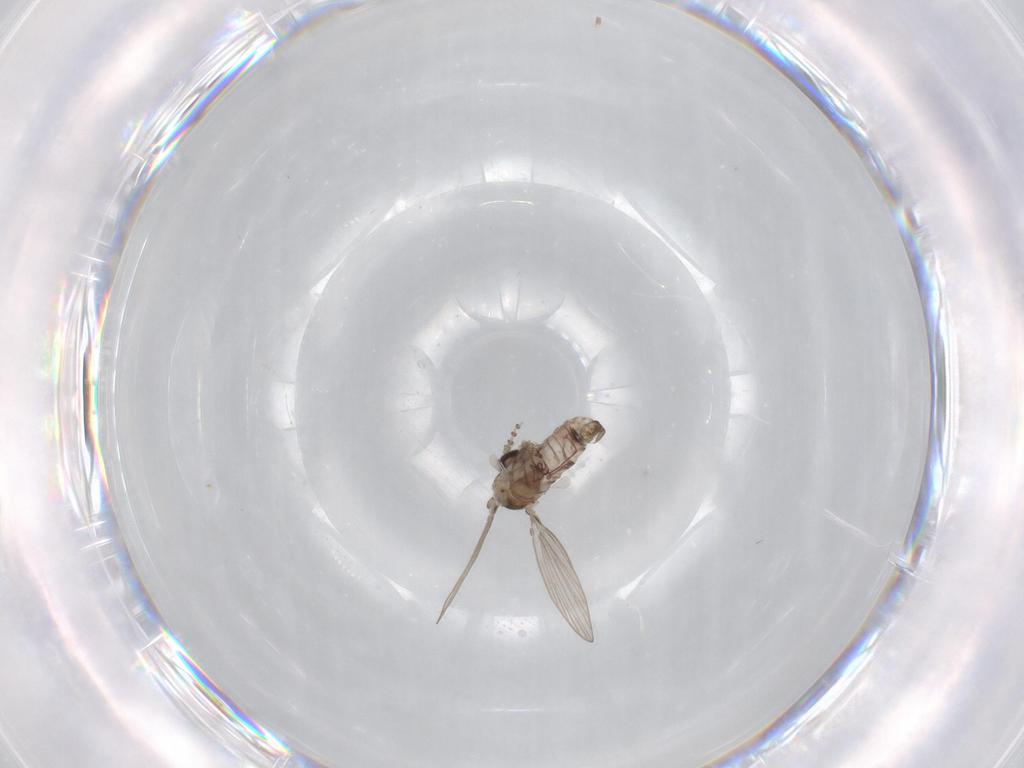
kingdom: Animalia
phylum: Arthropoda
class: Insecta
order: Diptera
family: Psychodidae
